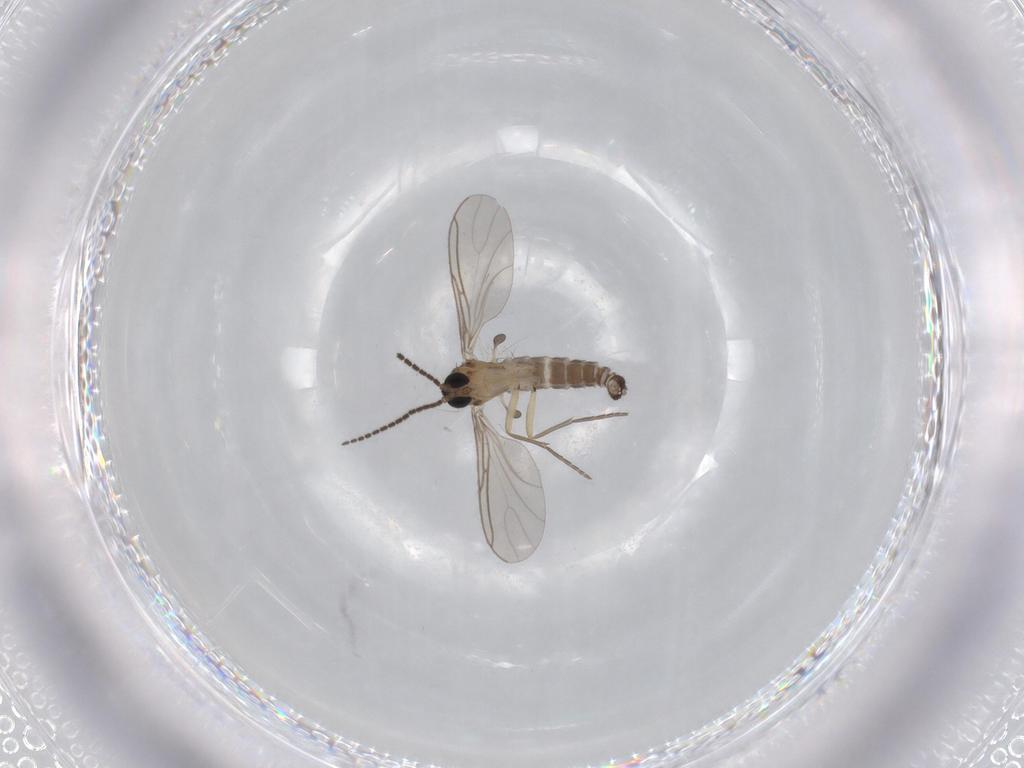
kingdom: Animalia
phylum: Arthropoda
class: Insecta
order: Diptera
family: Sciaridae
